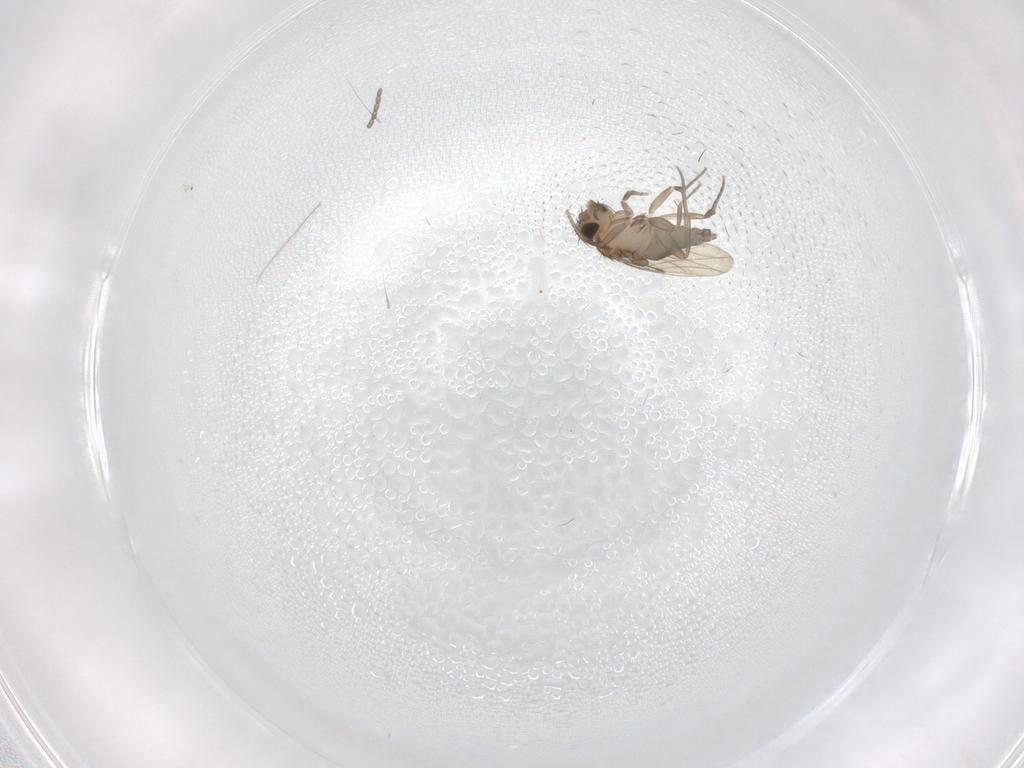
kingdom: Animalia
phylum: Arthropoda
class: Insecta
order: Diptera
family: Cecidomyiidae
